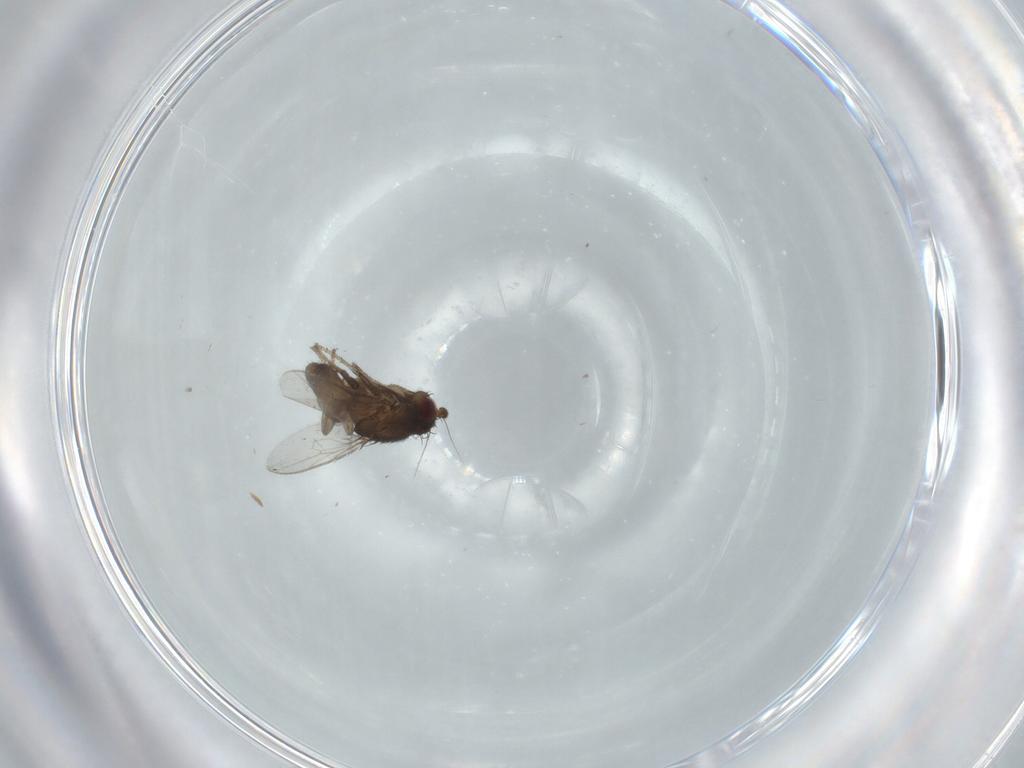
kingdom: Animalia
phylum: Arthropoda
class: Insecta
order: Diptera
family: Sphaeroceridae
